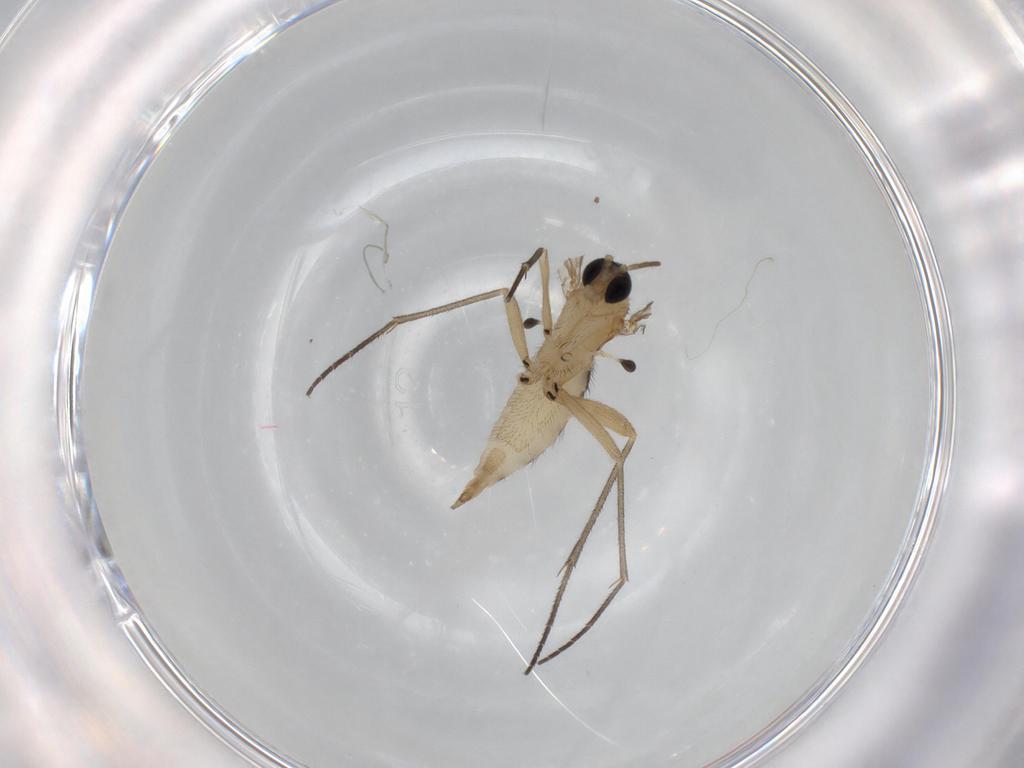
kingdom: Animalia
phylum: Arthropoda
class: Insecta
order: Diptera
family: Sciaridae
